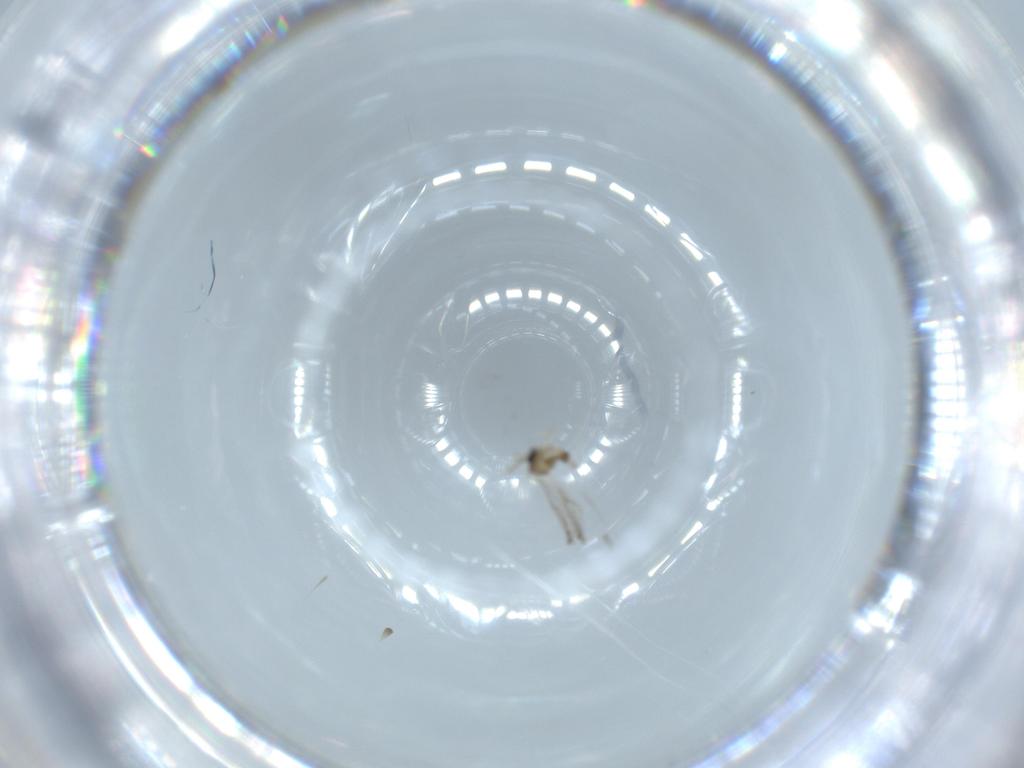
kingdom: Animalia
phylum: Arthropoda
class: Insecta
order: Diptera
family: Cecidomyiidae
